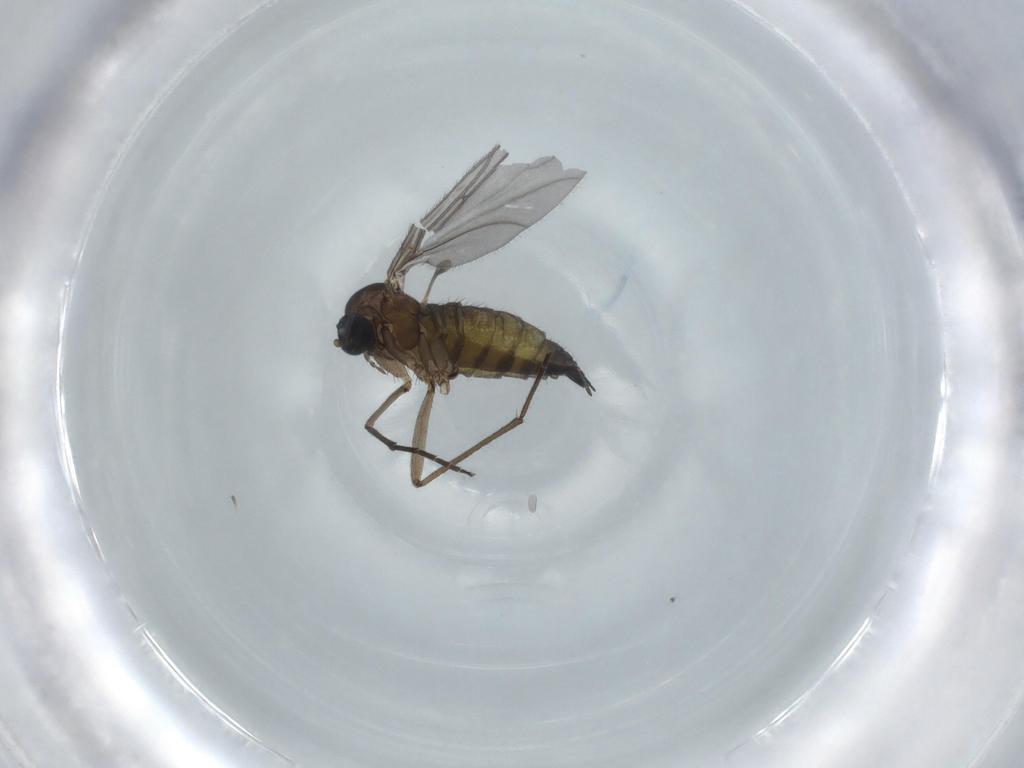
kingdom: Animalia
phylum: Arthropoda
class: Insecta
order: Diptera
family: Sciaridae
